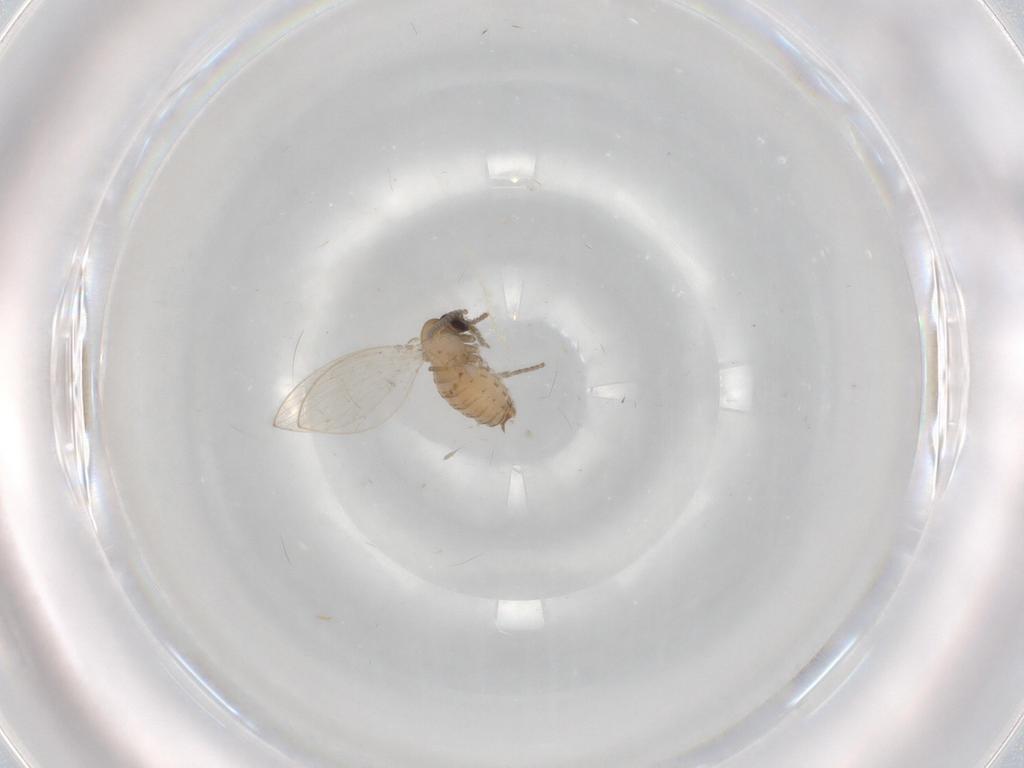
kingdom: Animalia
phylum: Arthropoda
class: Insecta
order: Diptera
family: Psychodidae
